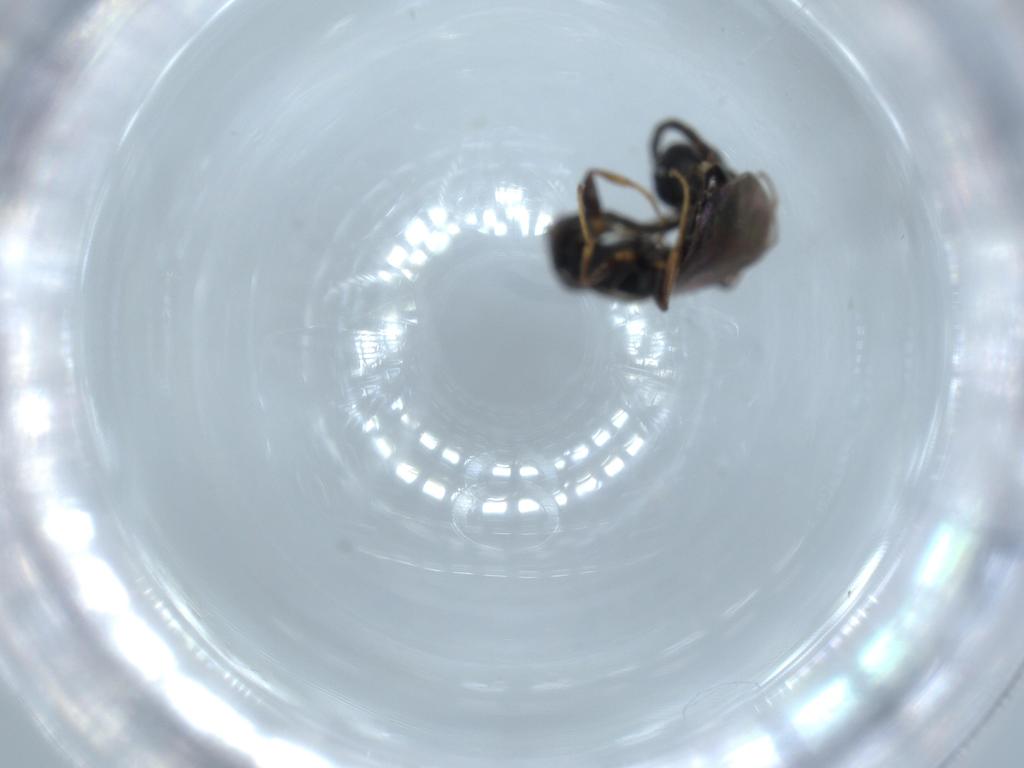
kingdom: Animalia
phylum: Arthropoda
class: Insecta
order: Hymenoptera
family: Bethylidae
